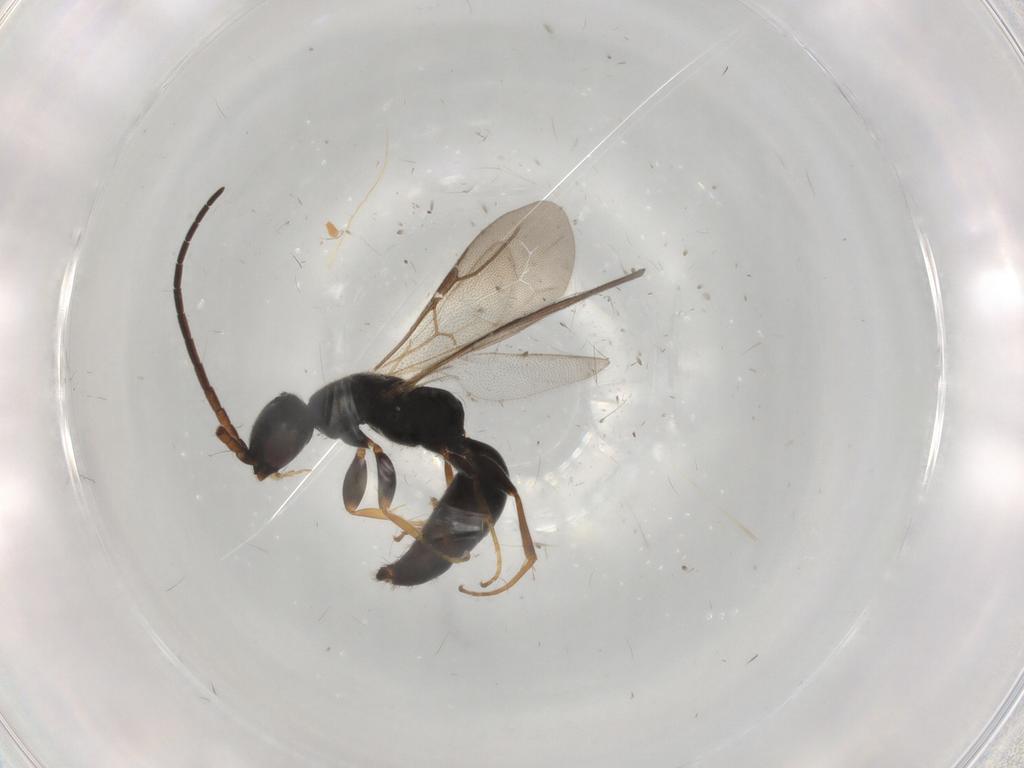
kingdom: Animalia
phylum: Arthropoda
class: Insecta
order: Hymenoptera
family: Bethylidae
